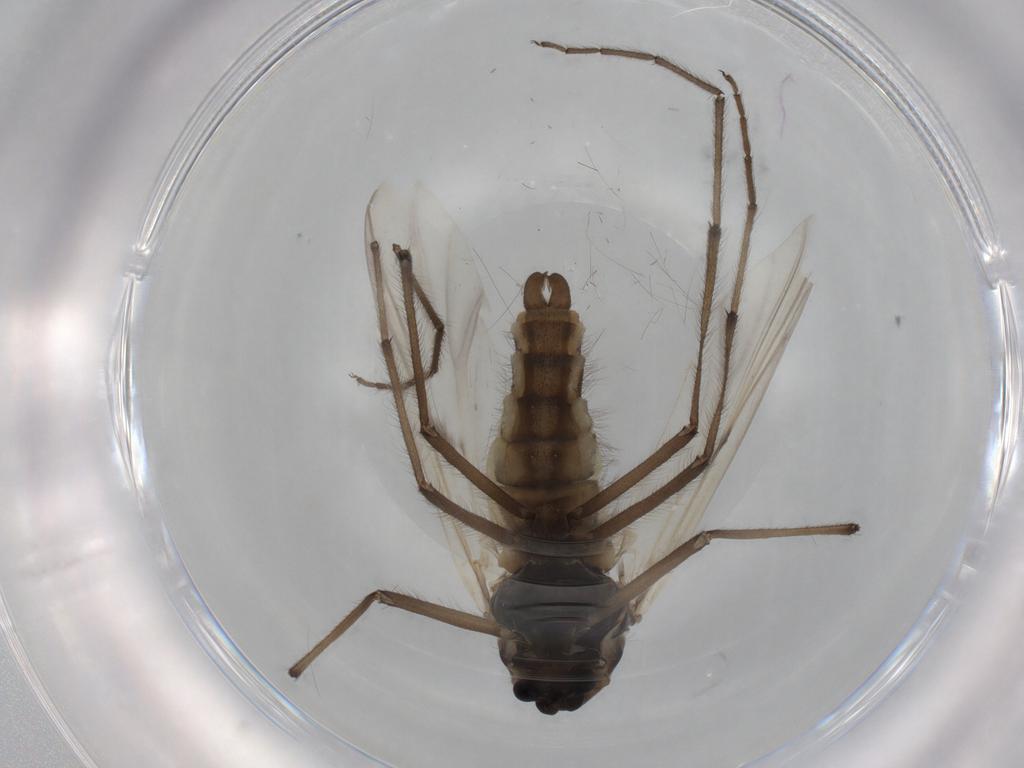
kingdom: Animalia
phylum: Arthropoda
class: Insecta
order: Diptera
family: Chironomidae
